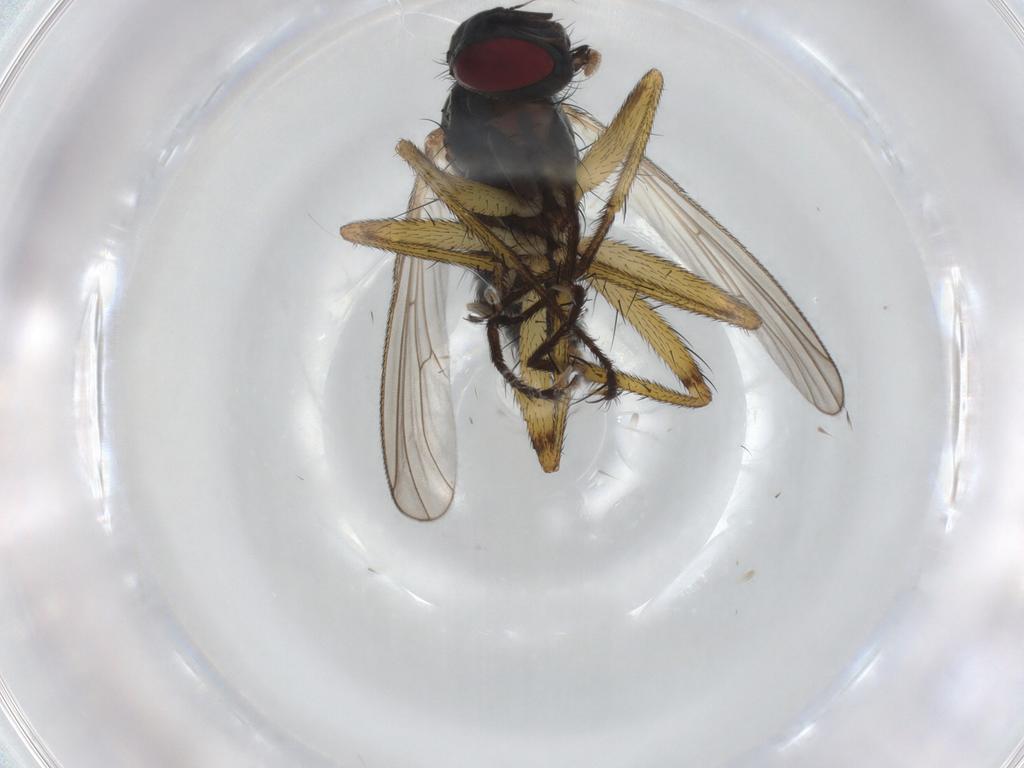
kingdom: Animalia
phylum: Arthropoda
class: Insecta
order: Diptera
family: Muscidae
